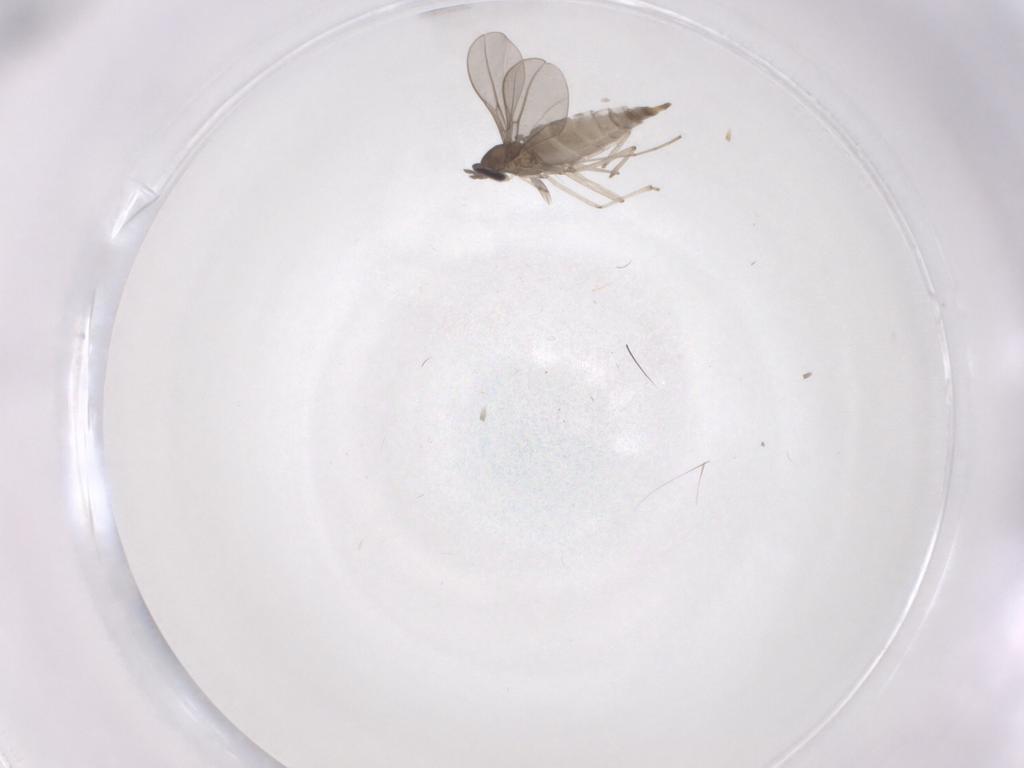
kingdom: Animalia
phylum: Arthropoda
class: Insecta
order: Diptera
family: Cecidomyiidae
